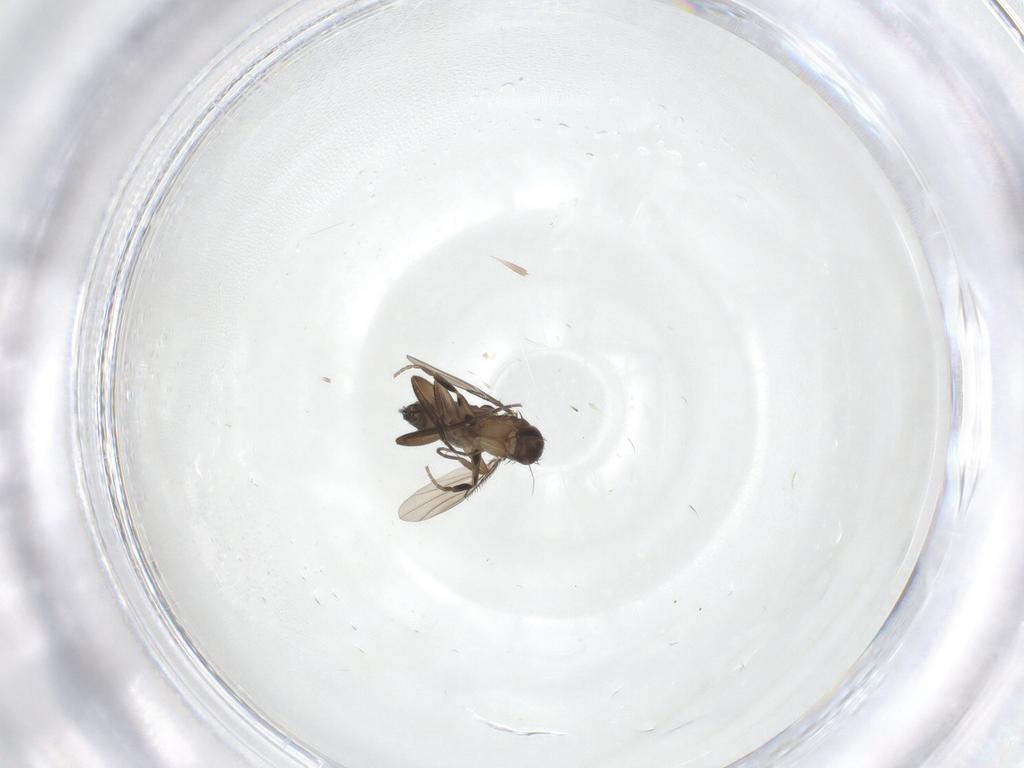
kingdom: Animalia
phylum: Arthropoda
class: Insecta
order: Diptera
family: Phoridae
